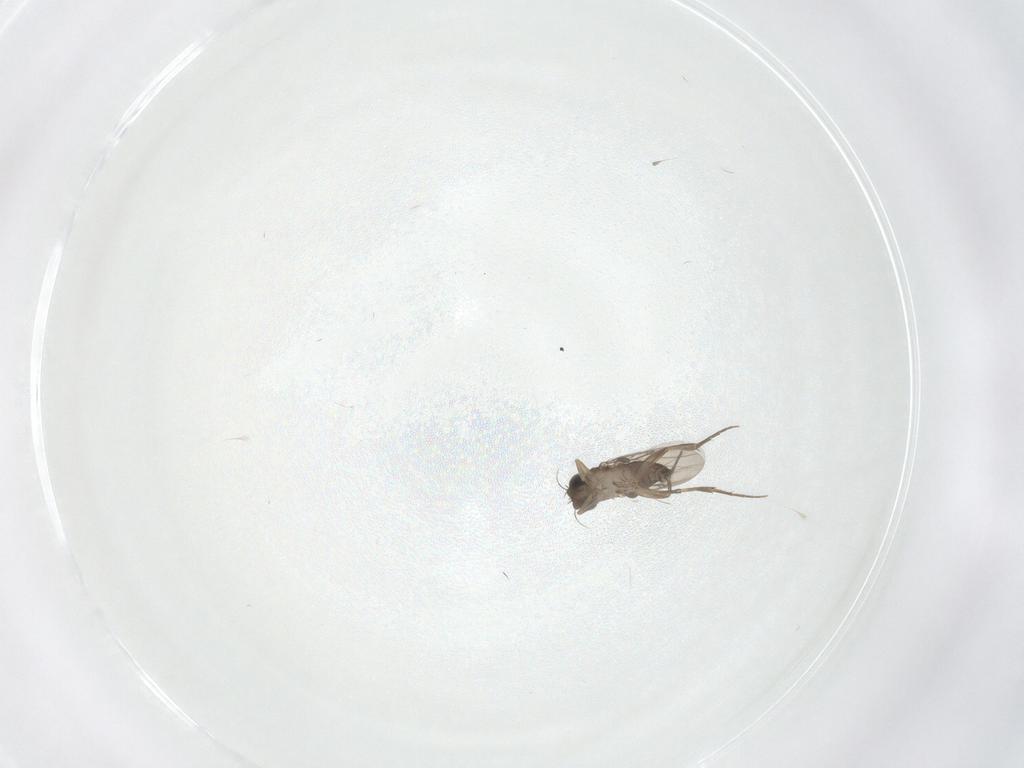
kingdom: Animalia
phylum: Arthropoda
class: Insecta
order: Diptera
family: Phoridae
